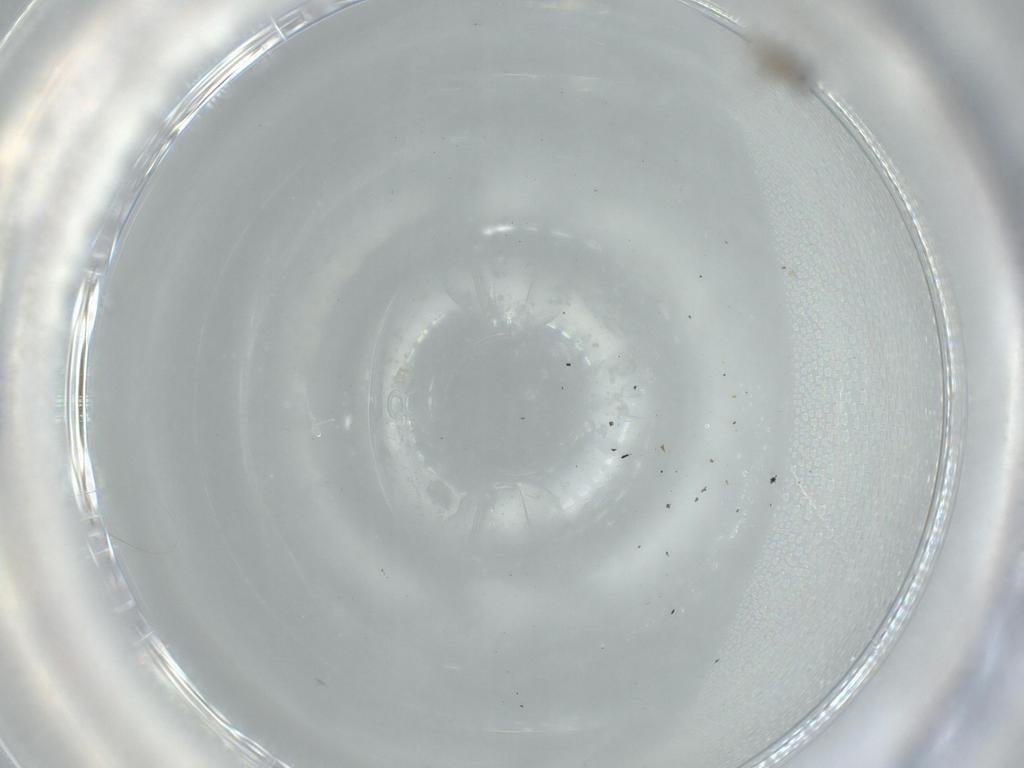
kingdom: Animalia
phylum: Arthropoda
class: Insecta
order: Diptera
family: Cecidomyiidae
